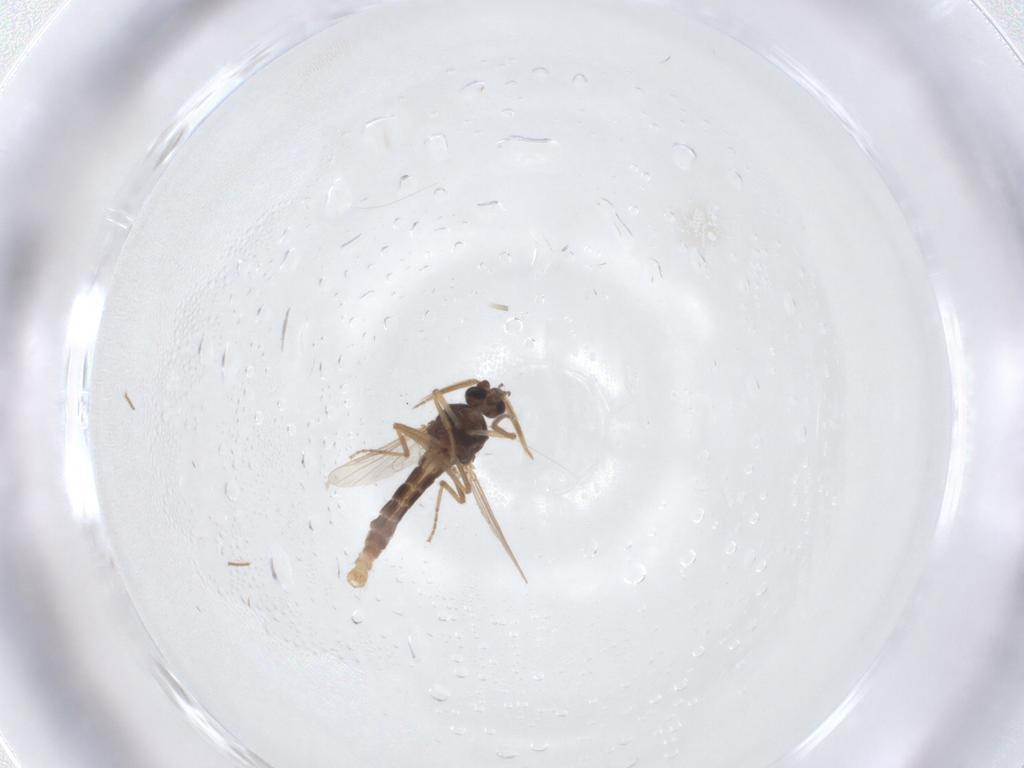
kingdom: Animalia
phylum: Arthropoda
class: Insecta
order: Diptera
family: Ceratopogonidae
